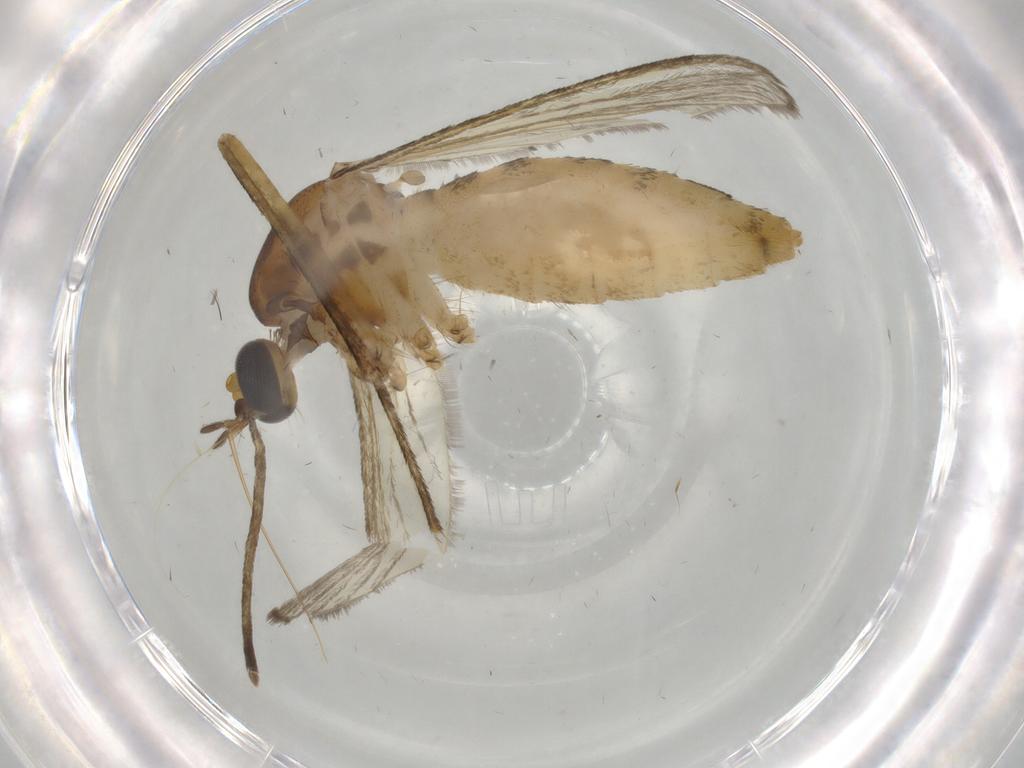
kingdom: Animalia
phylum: Arthropoda
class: Insecta
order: Diptera
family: Culicidae
